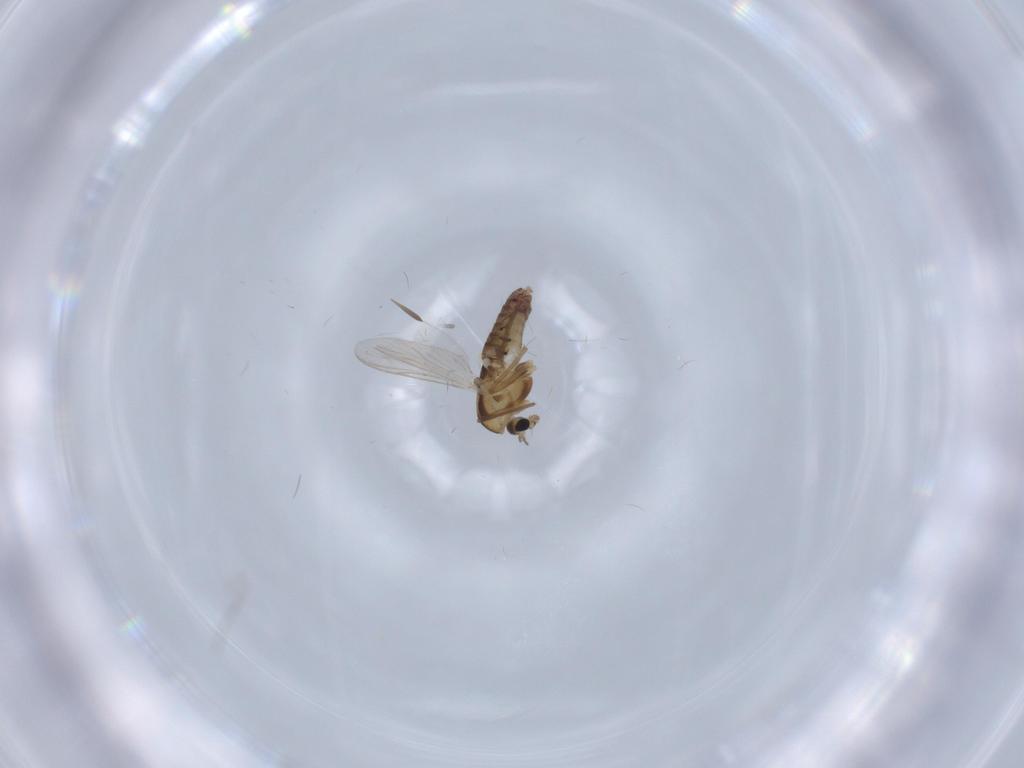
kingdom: Animalia
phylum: Arthropoda
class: Insecta
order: Diptera
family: Chironomidae
